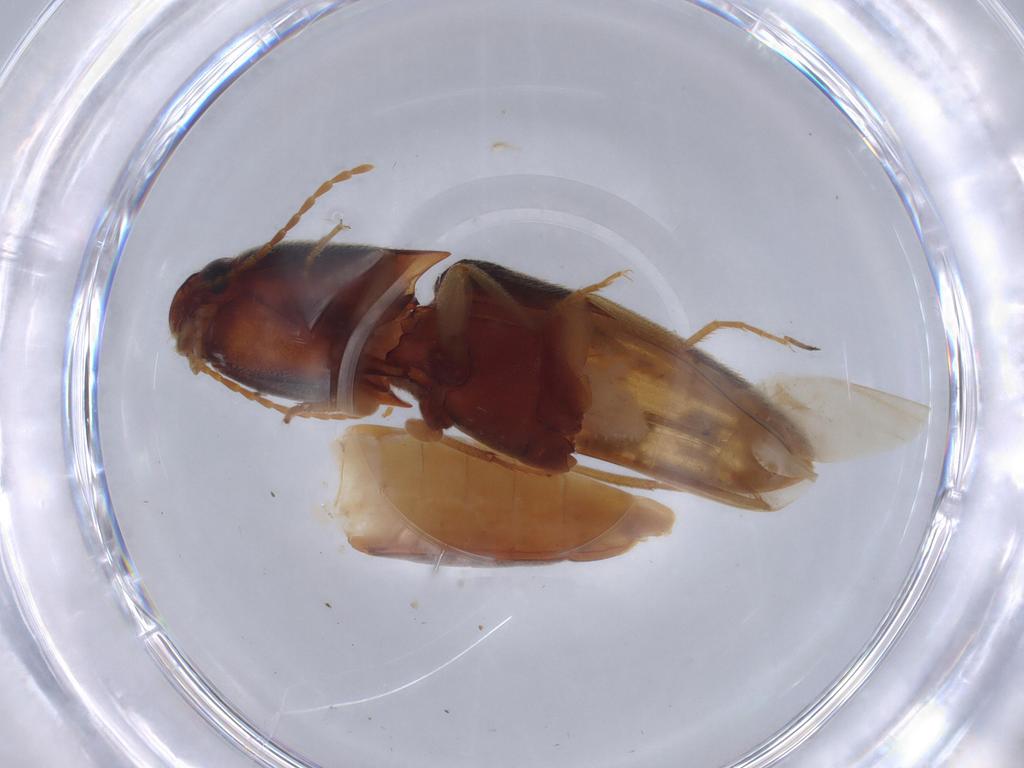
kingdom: Animalia
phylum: Arthropoda
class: Insecta
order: Coleoptera
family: Elateridae
